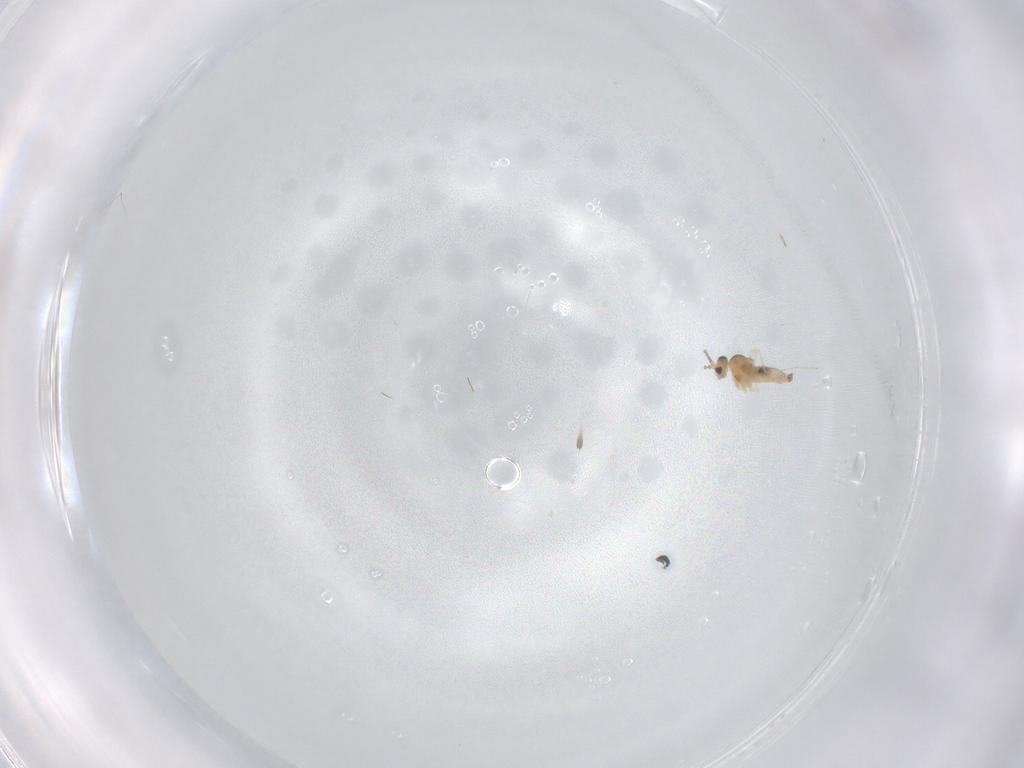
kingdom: Animalia
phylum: Arthropoda
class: Insecta
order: Diptera
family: Cecidomyiidae
